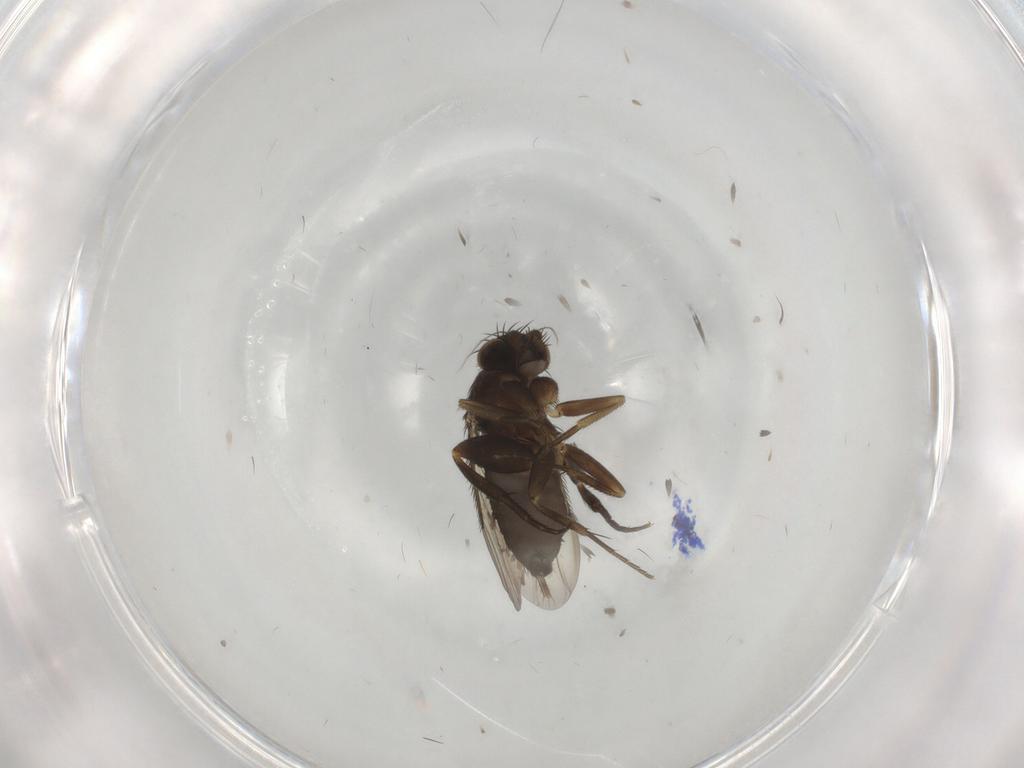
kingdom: Animalia
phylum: Arthropoda
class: Insecta
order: Diptera
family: Phoridae
